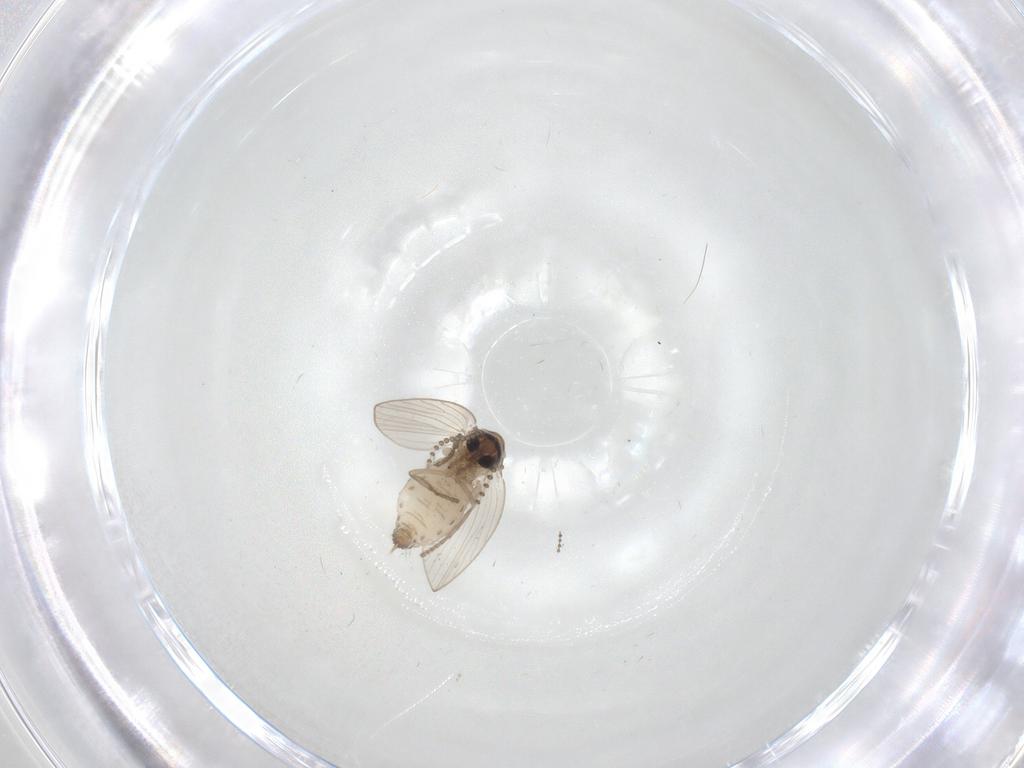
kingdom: Animalia
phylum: Arthropoda
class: Insecta
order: Diptera
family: Psychodidae
